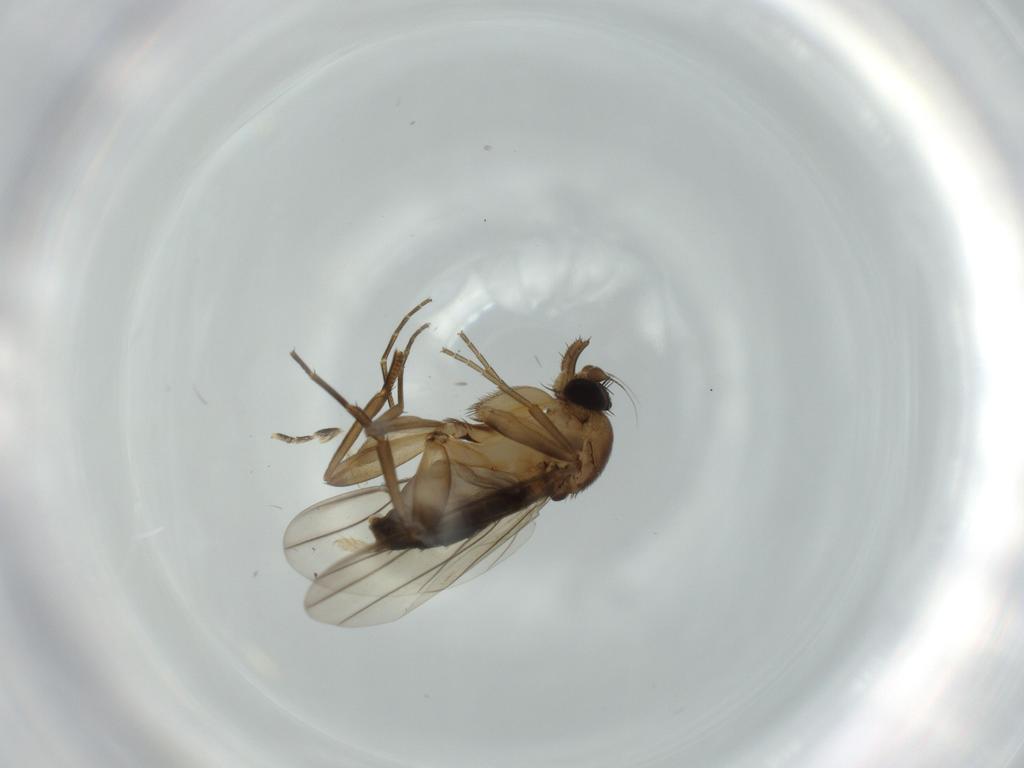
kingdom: Animalia
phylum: Arthropoda
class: Insecta
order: Diptera
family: Phoridae
